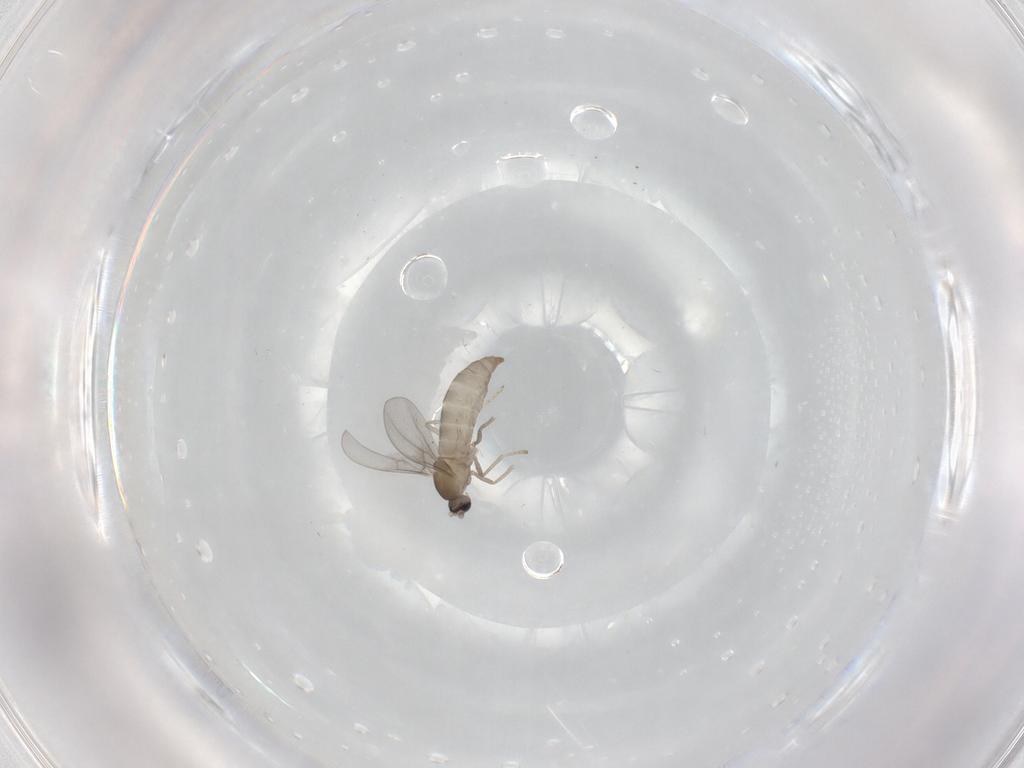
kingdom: Animalia
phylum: Arthropoda
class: Insecta
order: Diptera
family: Cecidomyiidae
